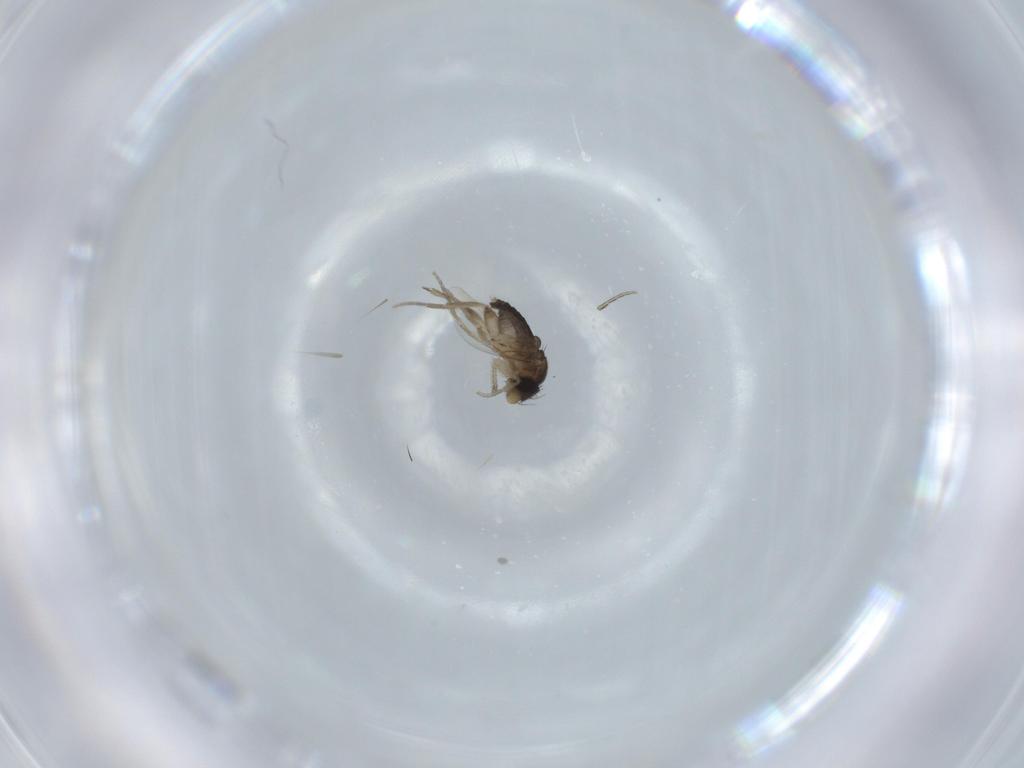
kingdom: Animalia
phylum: Arthropoda
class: Insecta
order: Diptera
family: Phoridae
